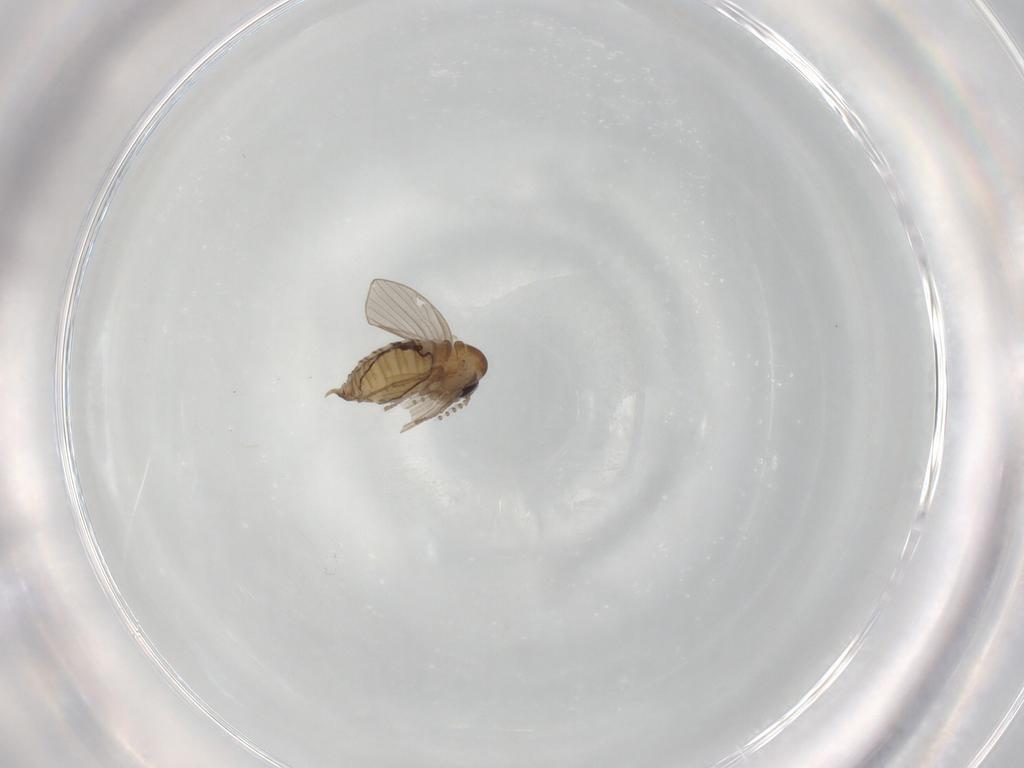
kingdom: Animalia
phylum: Arthropoda
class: Insecta
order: Diptera
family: Psychodidae
